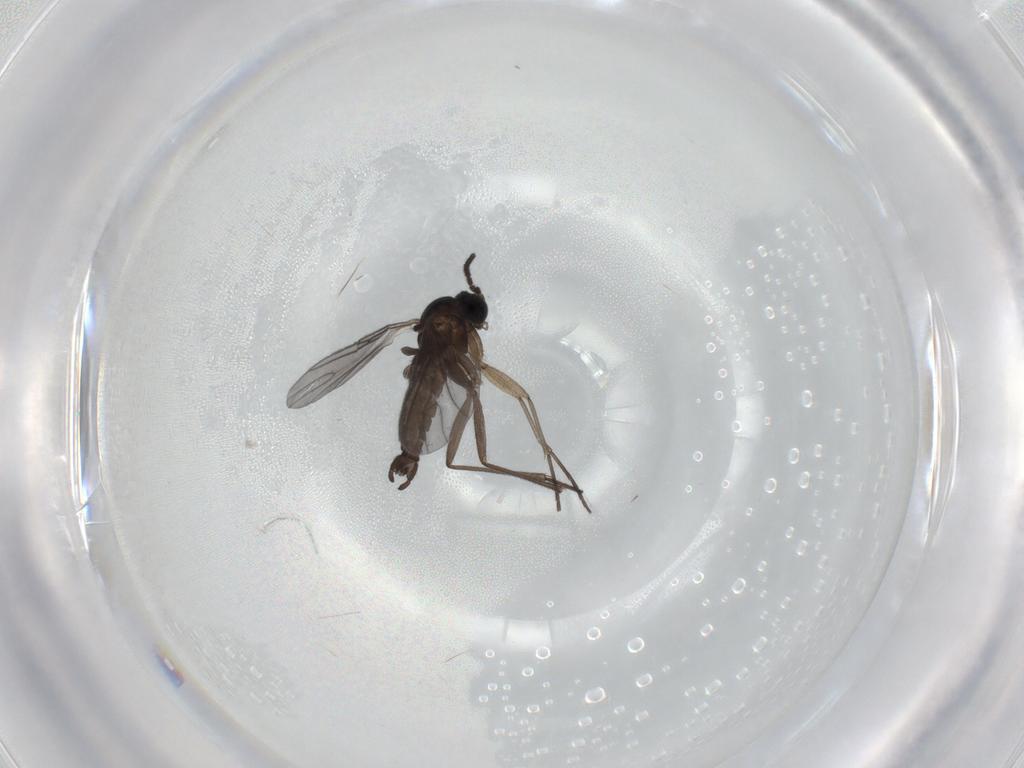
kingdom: Animalia
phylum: Arthropoda
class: Insecta
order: Diptera
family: Sciaridae
